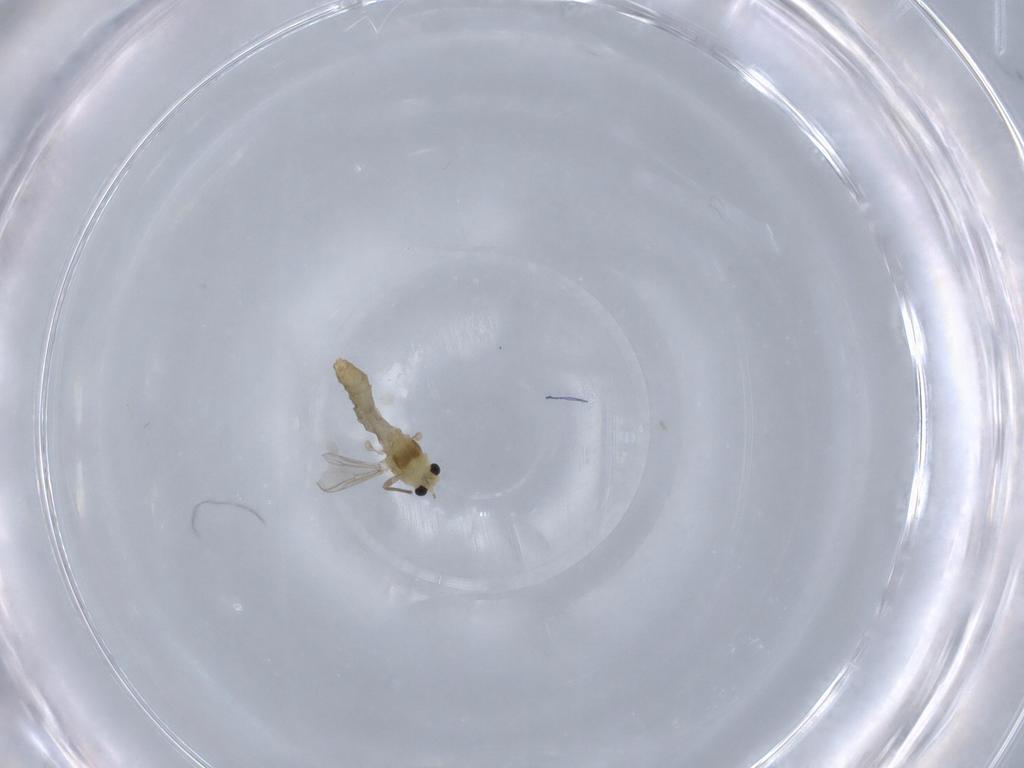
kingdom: Animalia
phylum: Arthropoda
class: Insecta
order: Diptera
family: Chironomidae
